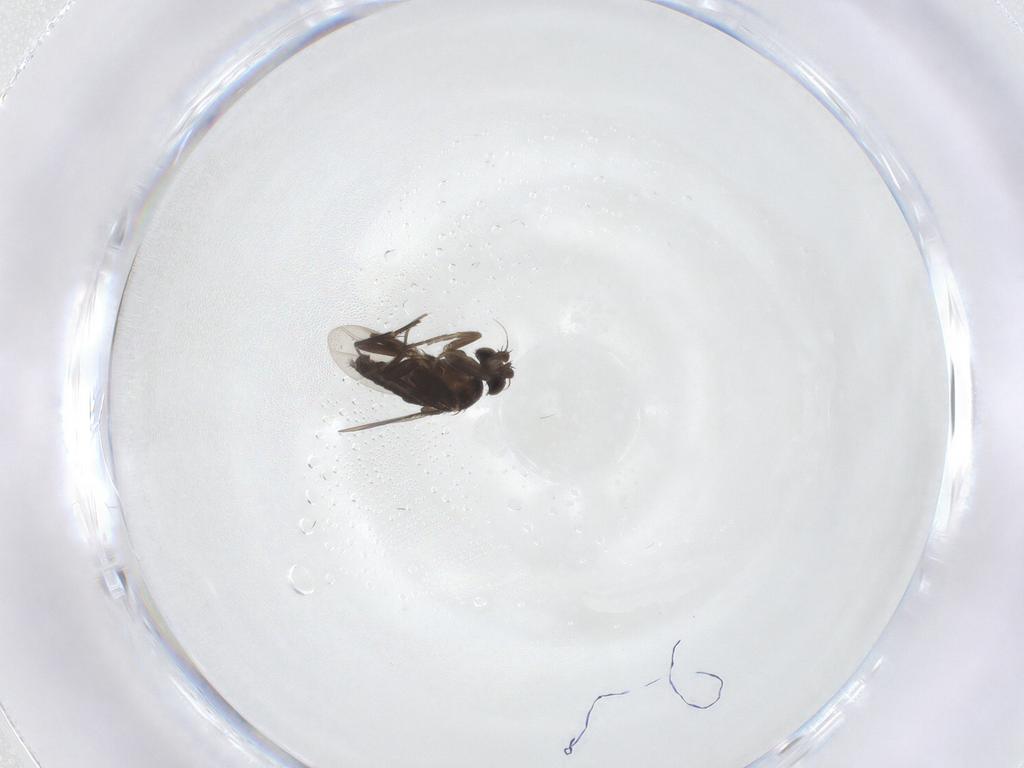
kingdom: Animalia
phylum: Arthropoda
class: Insecta
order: Diptera
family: Phoridae
